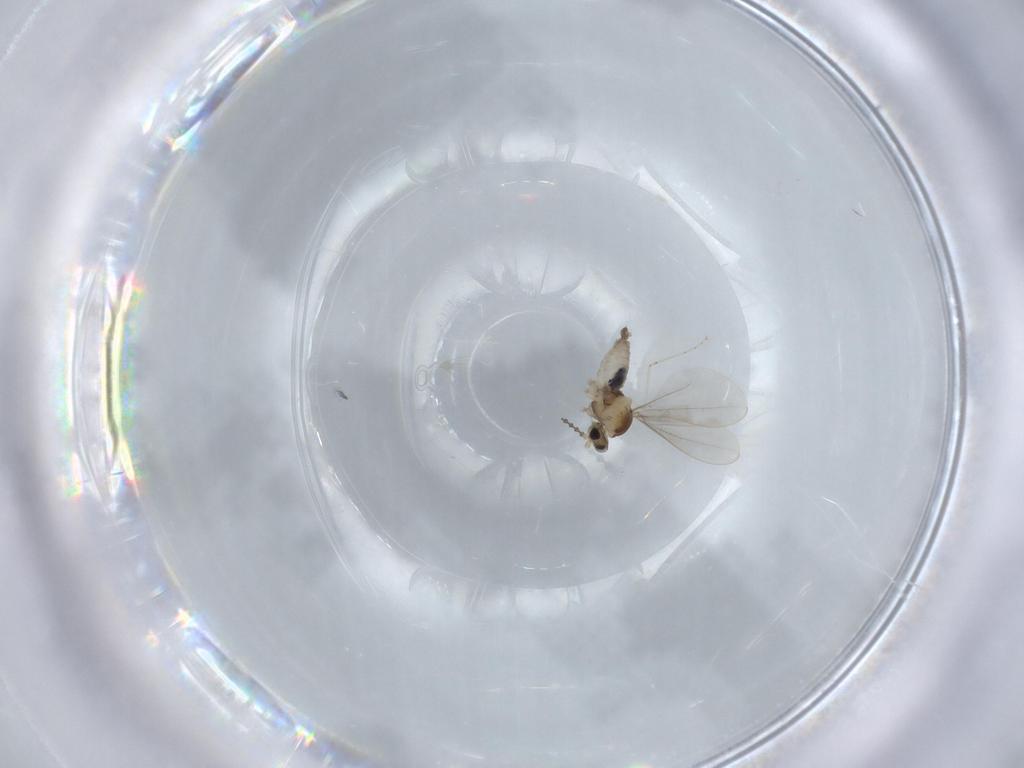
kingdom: Animalia
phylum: Arthropoda
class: Insecta
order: Diptera
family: Cecidomyiidae
